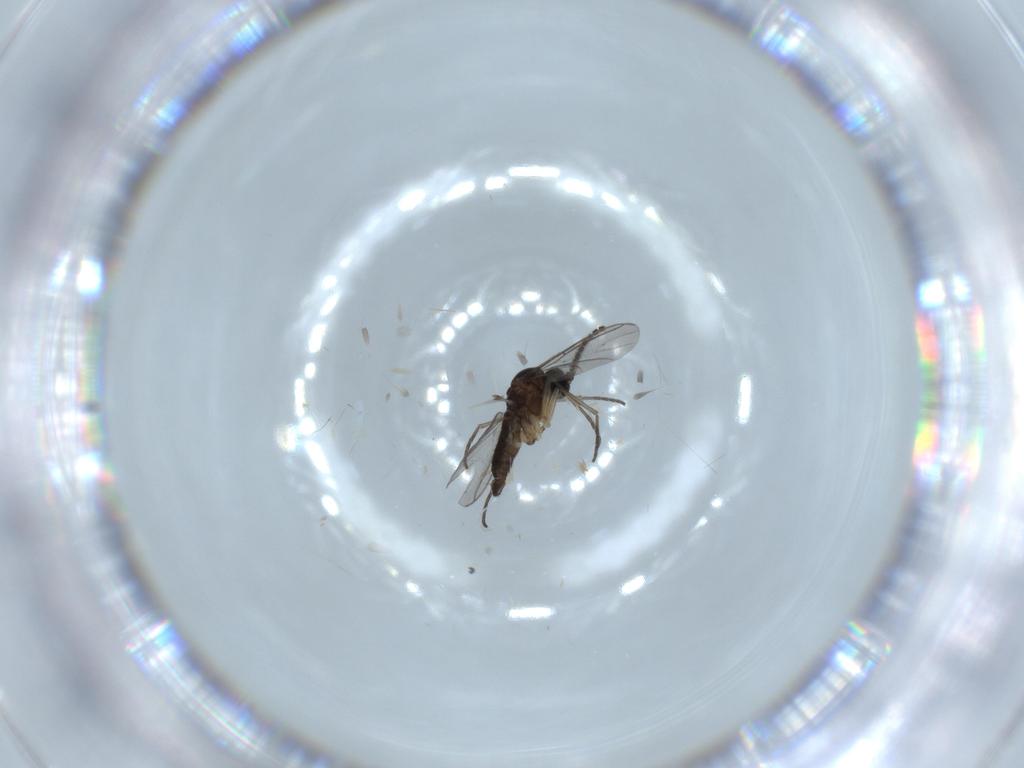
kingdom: Animalia
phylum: Arthropoda
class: Insecta
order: Diptera
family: Sciaridae
